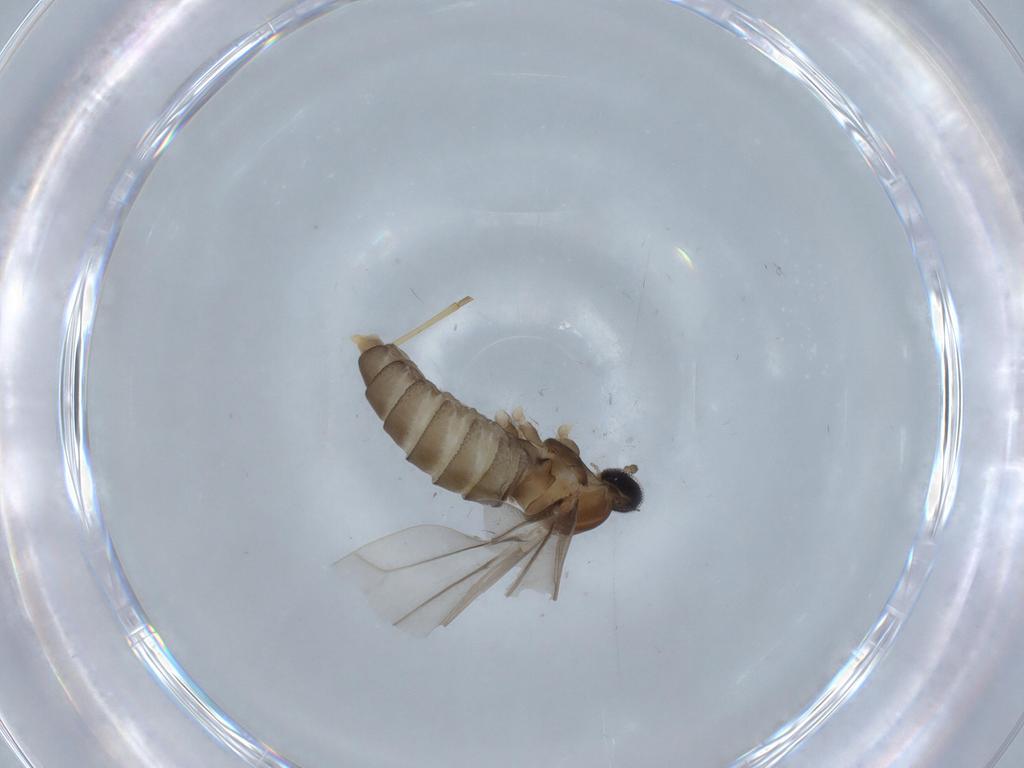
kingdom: Animalia
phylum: Arthropoda
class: Insecta
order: Diptera
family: Cecidomyiidae
